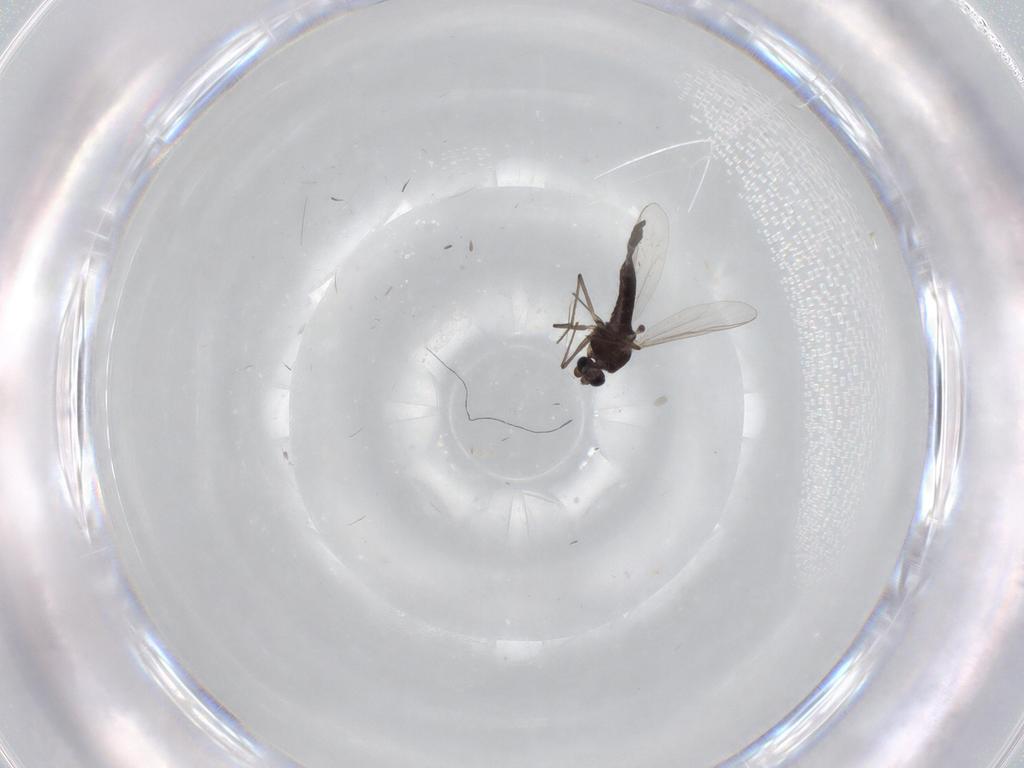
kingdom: Animalia
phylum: Arthropoda
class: Insecta
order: Diptera
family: Chironomidae
